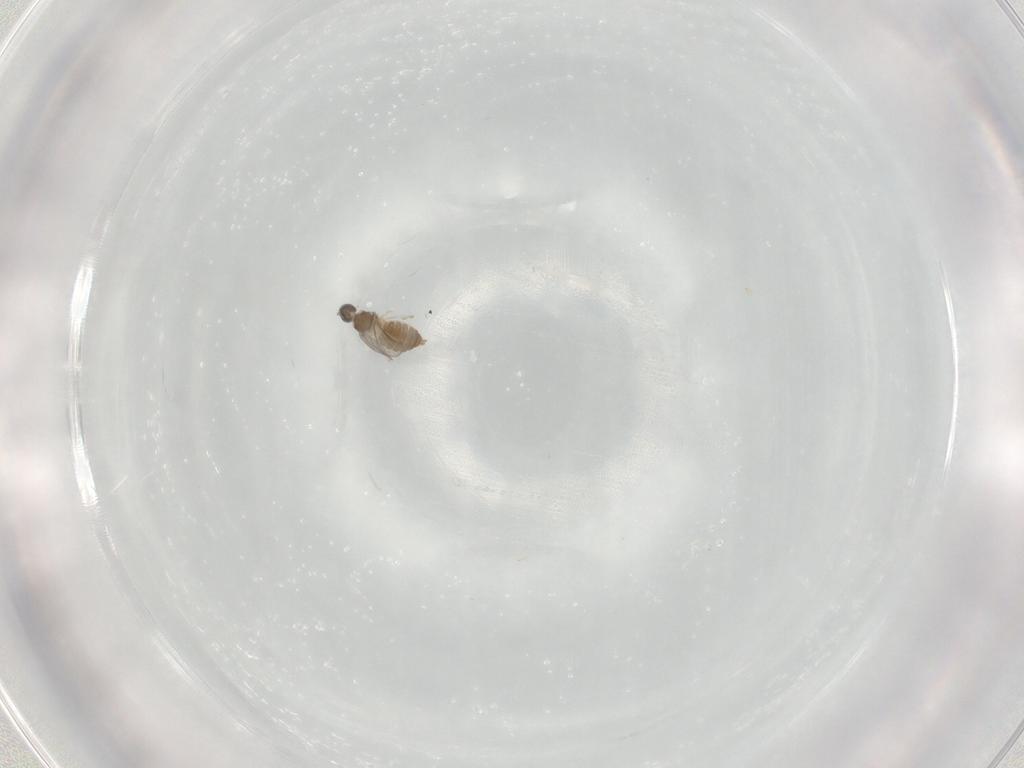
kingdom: Animalia
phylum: Arthropoda
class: Insecta
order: Diptera
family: Cecidomyiidae
